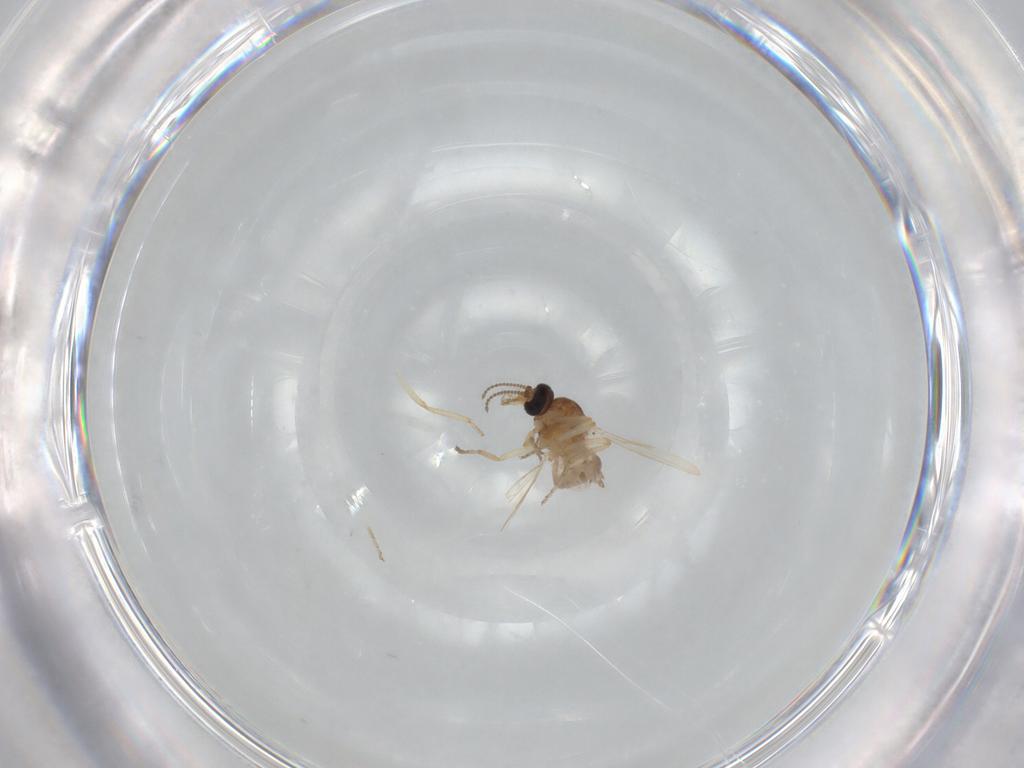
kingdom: Animalia
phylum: Arthropoda
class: Insecta
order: Diptera
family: Ceratopogonidae
